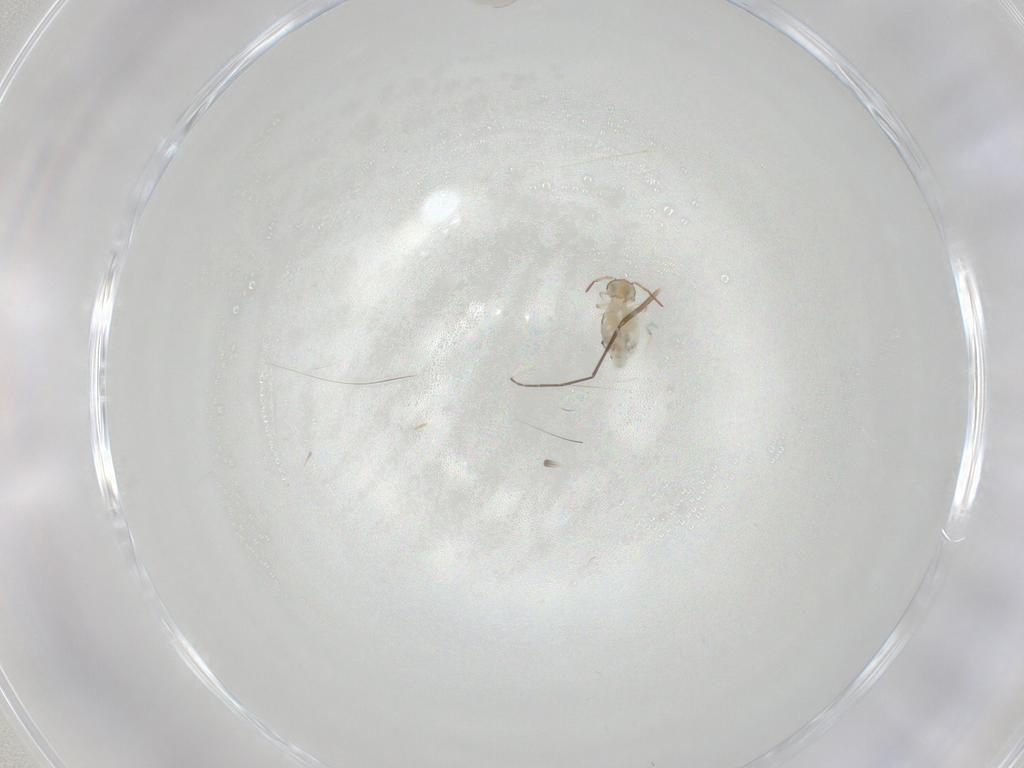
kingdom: Animalia
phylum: Arthropoda
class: Collembola
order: Symphypleona
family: Bourletiellidae
